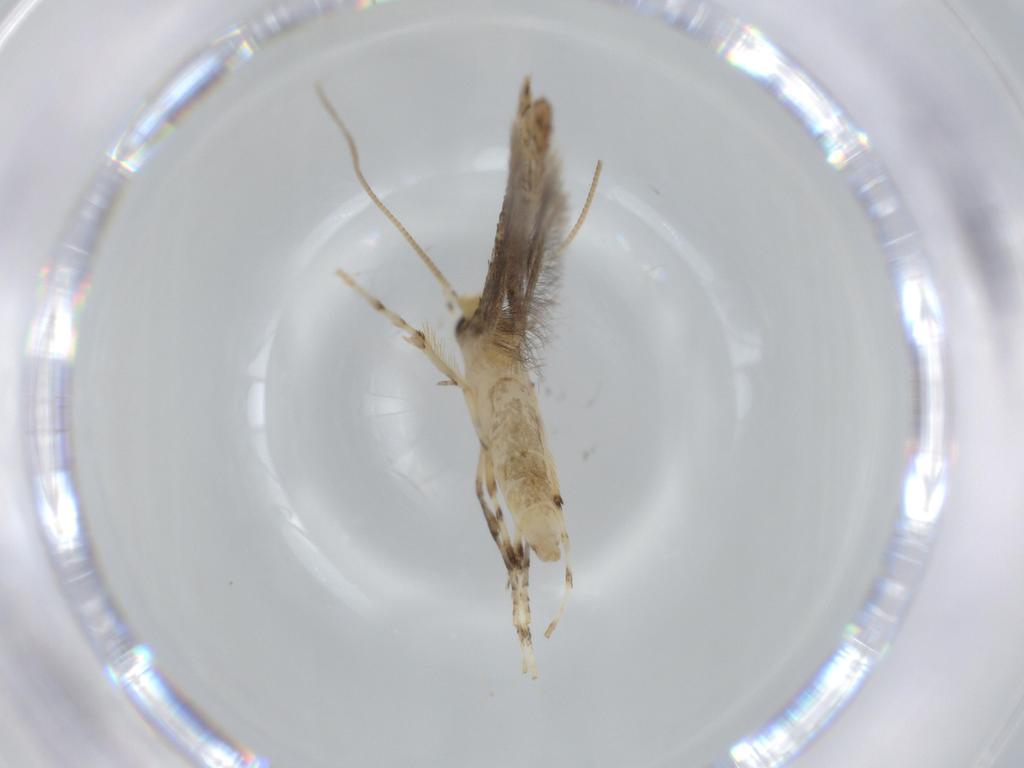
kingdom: Animalia
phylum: Arthropoda
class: Insecta
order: Lepidoptera
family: Gracillariidae
